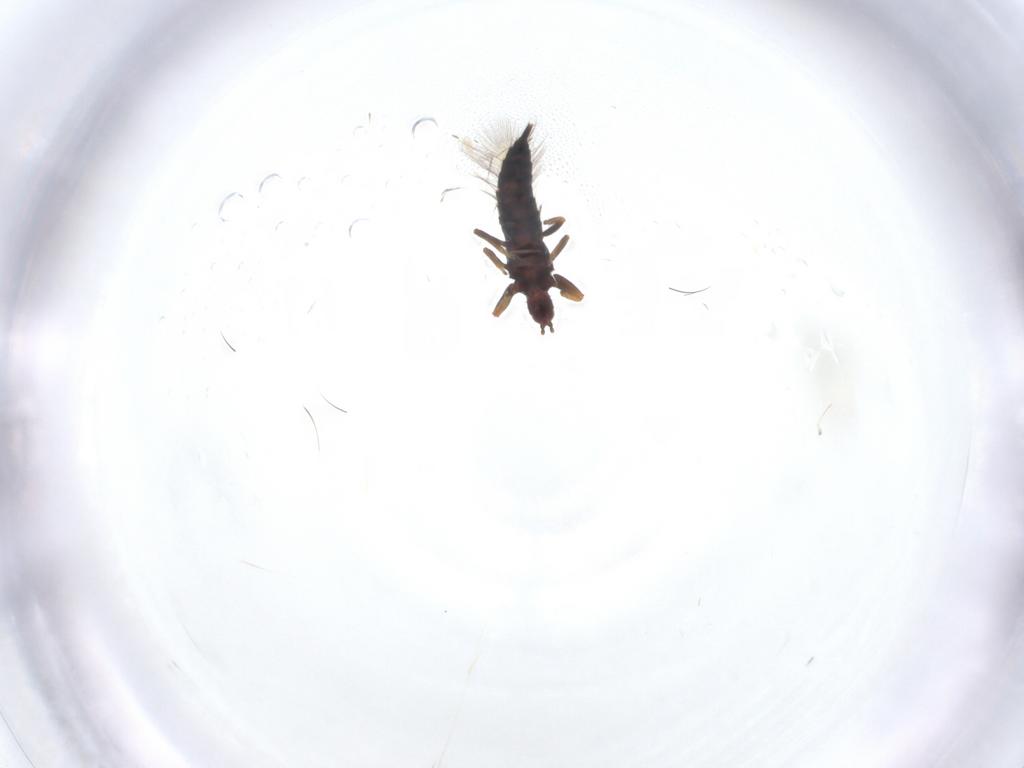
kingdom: Animalia
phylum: Arthropoda
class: Insecta
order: Thysanoptera
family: Phlaeothripidae
